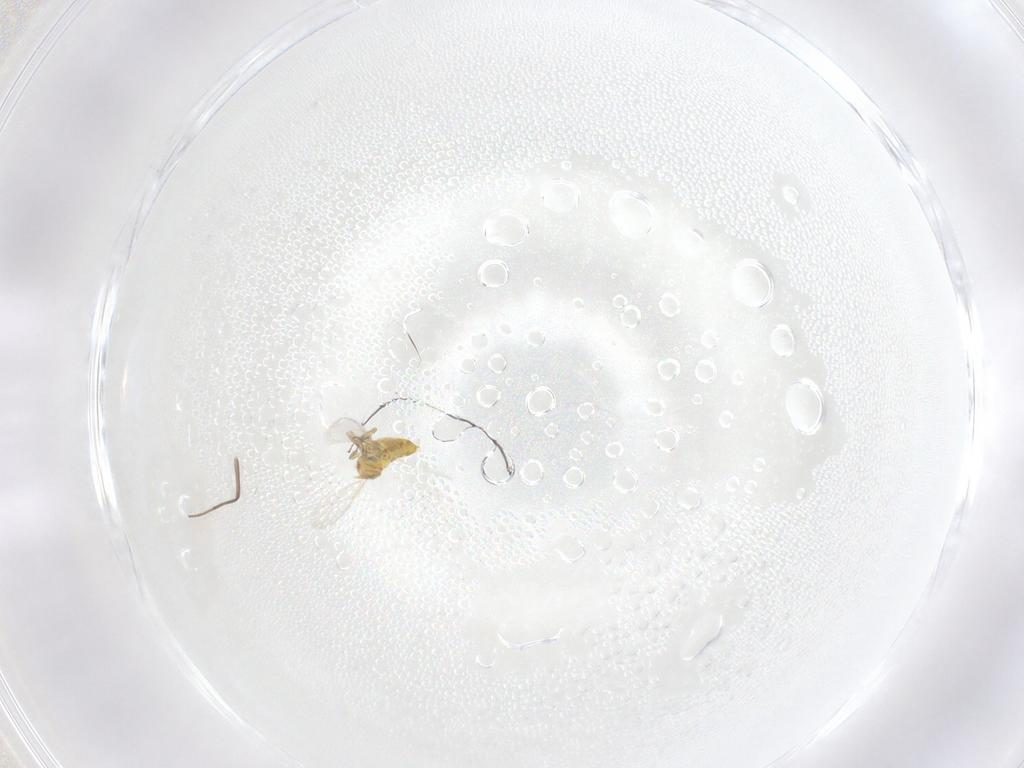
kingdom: Animalia
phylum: Arthropoda
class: Insecta
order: Hymenoptera
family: Aphelinidae
